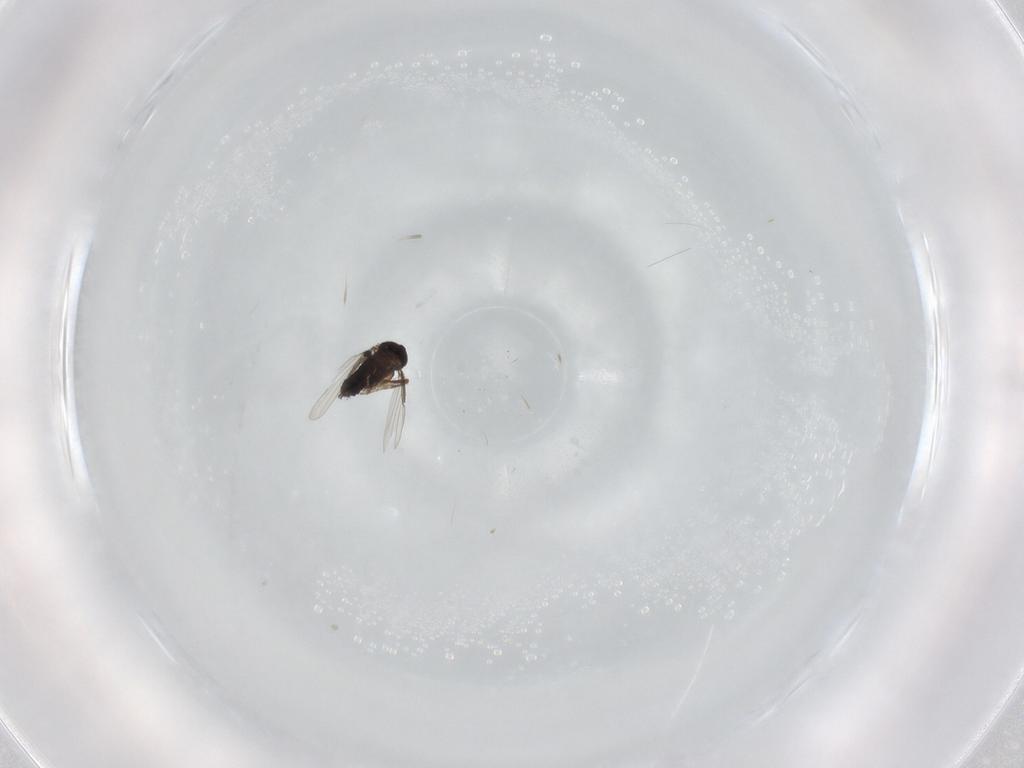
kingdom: Animalia
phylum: Arthropoda
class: Insecta
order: Diptera
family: Phoridae
